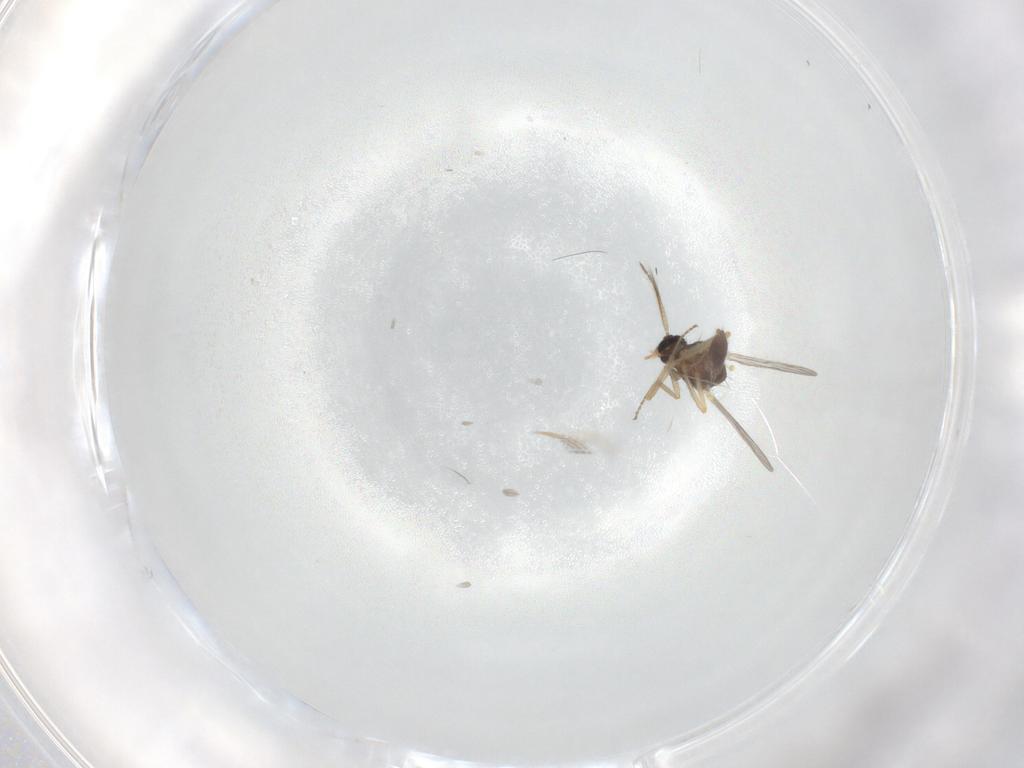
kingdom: Animalia
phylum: Arthropoda
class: Insecta
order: Diptera
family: Ceratopogonidae
